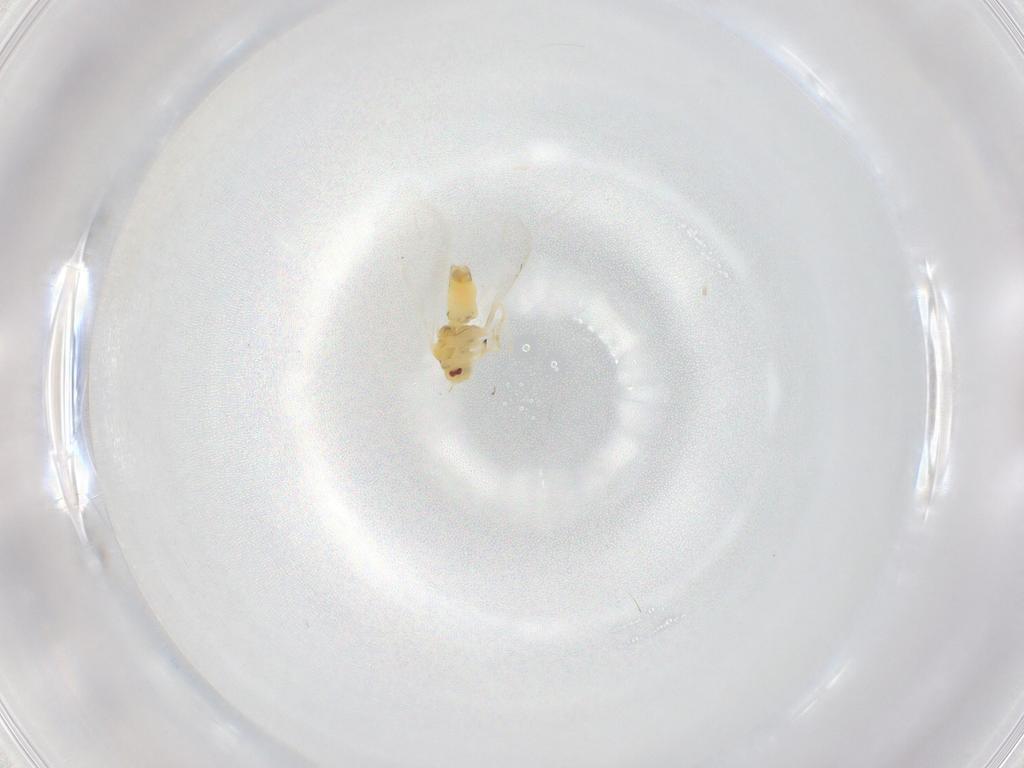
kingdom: Animalia
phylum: Arthropoda
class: Insecta
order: Hemiptera
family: Aleyrodidae
